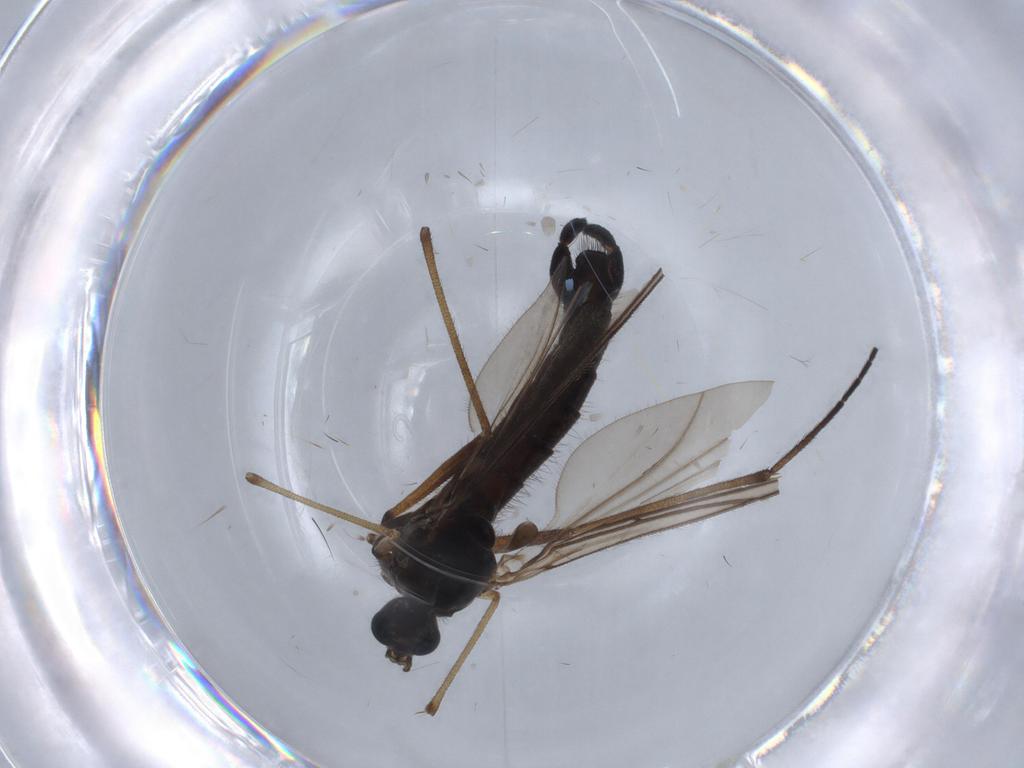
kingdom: Animalia
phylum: Arthropoda
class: Insecta
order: Diptera
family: Sciaridae
